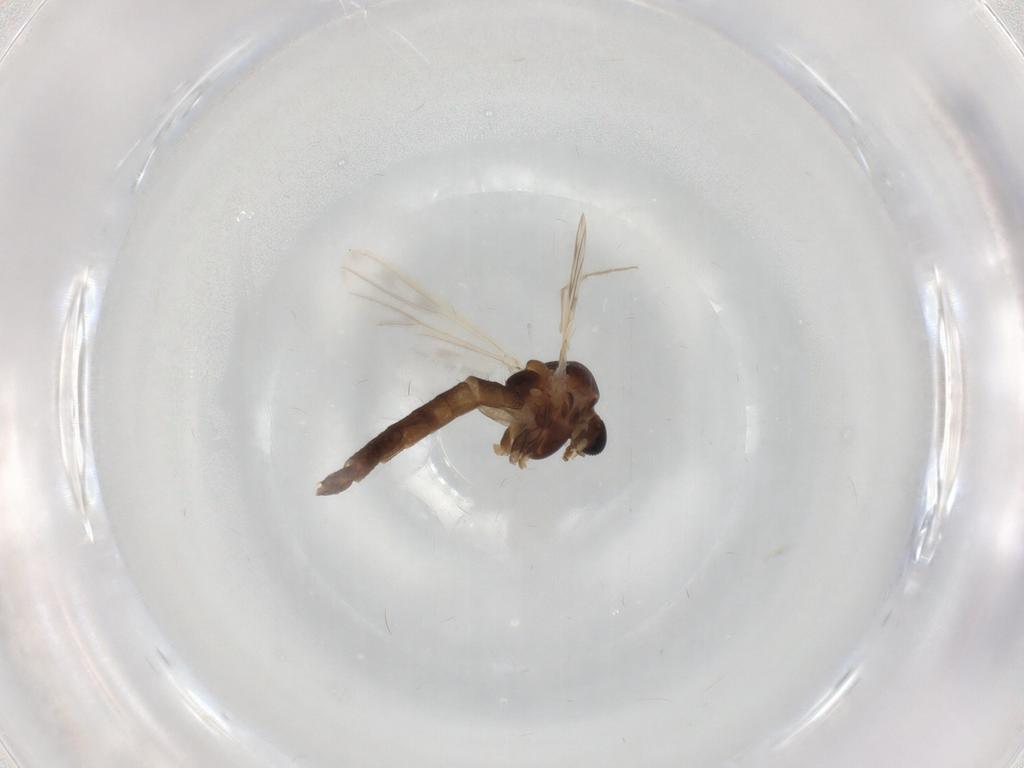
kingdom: Animalia
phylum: Arthropoda
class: Insecta
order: Diptera
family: Chironomidae
